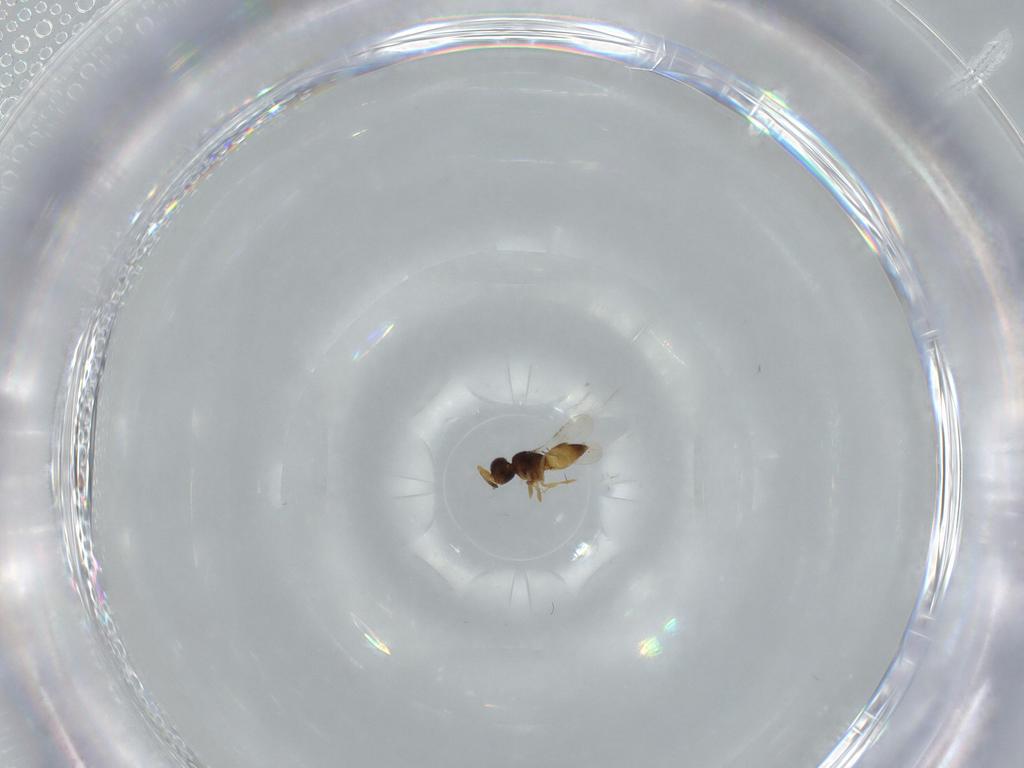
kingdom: Animalia
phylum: Arthropoda
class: Insecta
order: Hymenoptera
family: Ceraphronidae
